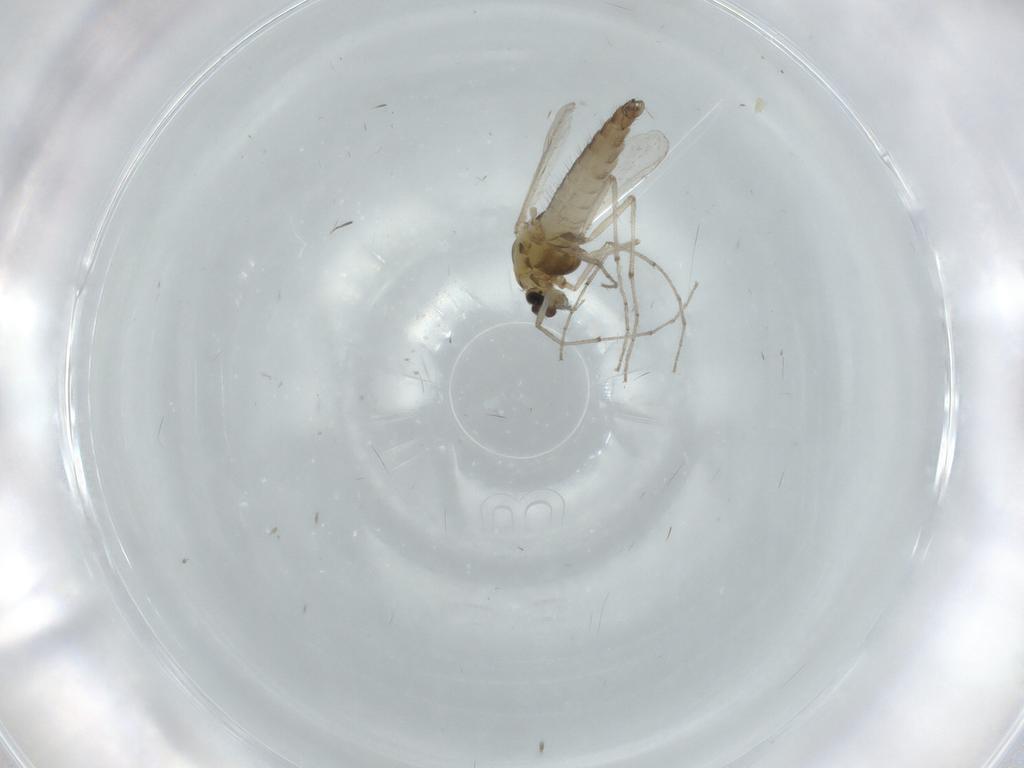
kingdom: Animalia
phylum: Arthropoda
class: Insecta
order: Diptera
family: Chironomidae
